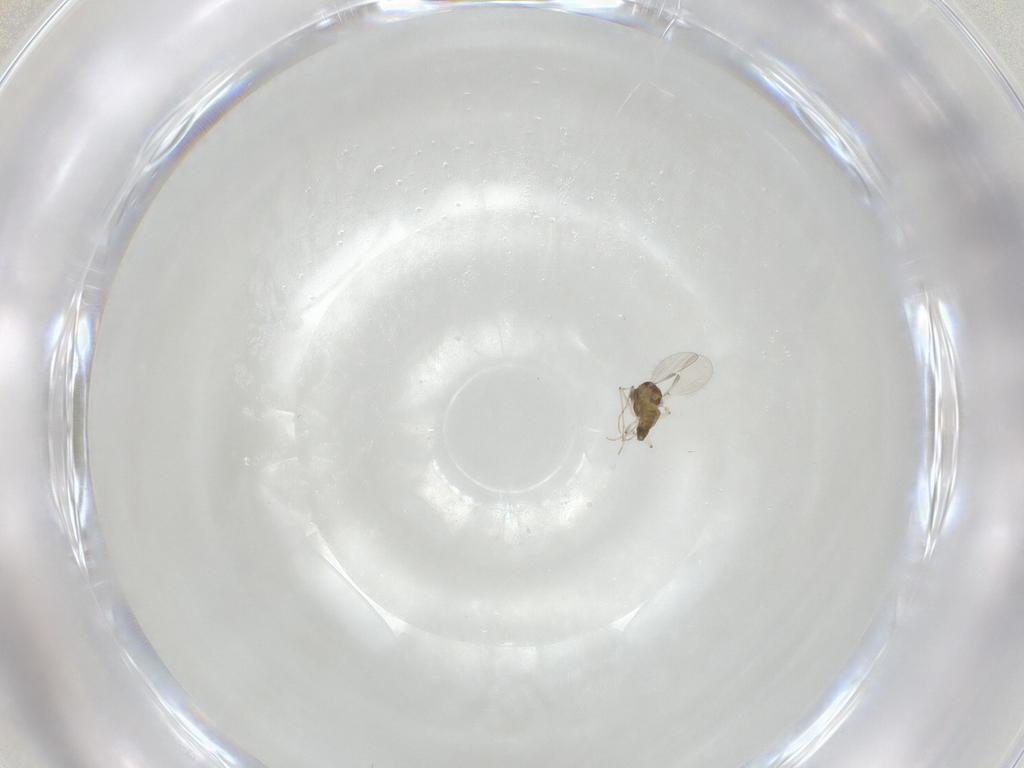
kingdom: Animalia
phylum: Arthropoda
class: Insecta
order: Diptera
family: Chironomidae
